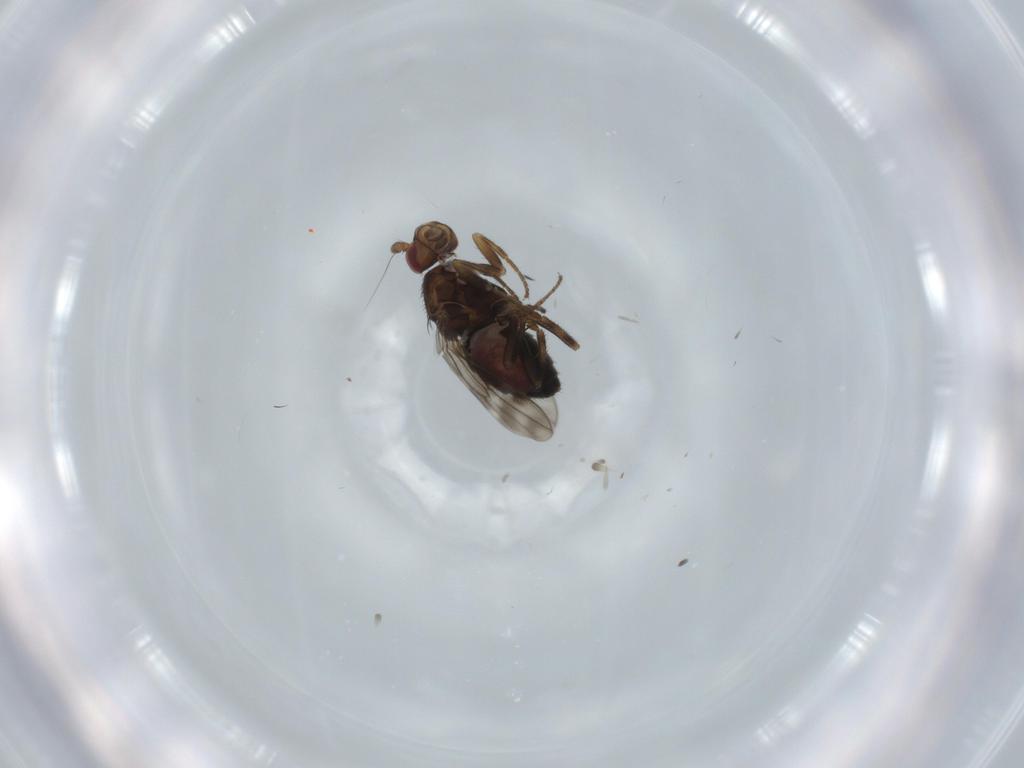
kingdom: Animalia
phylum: Arthropoda
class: Insecta
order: Diptera
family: Sphaeroceridae
